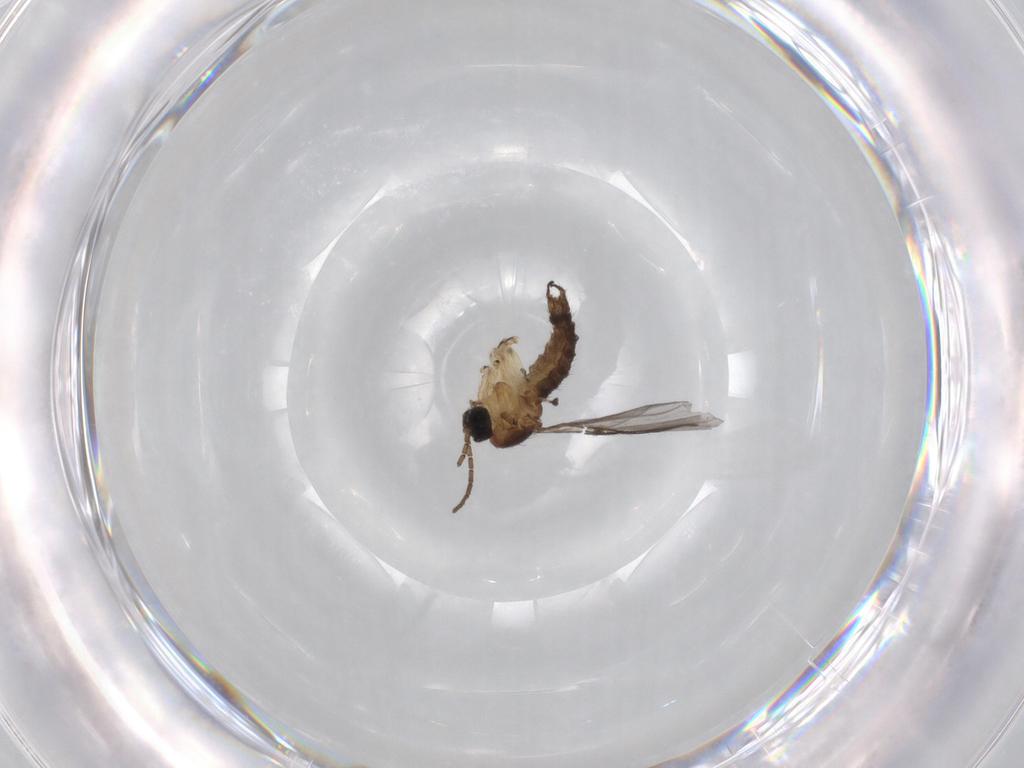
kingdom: Animalia
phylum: Arthropoda
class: Insecta
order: Diptera
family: Sciaridae
